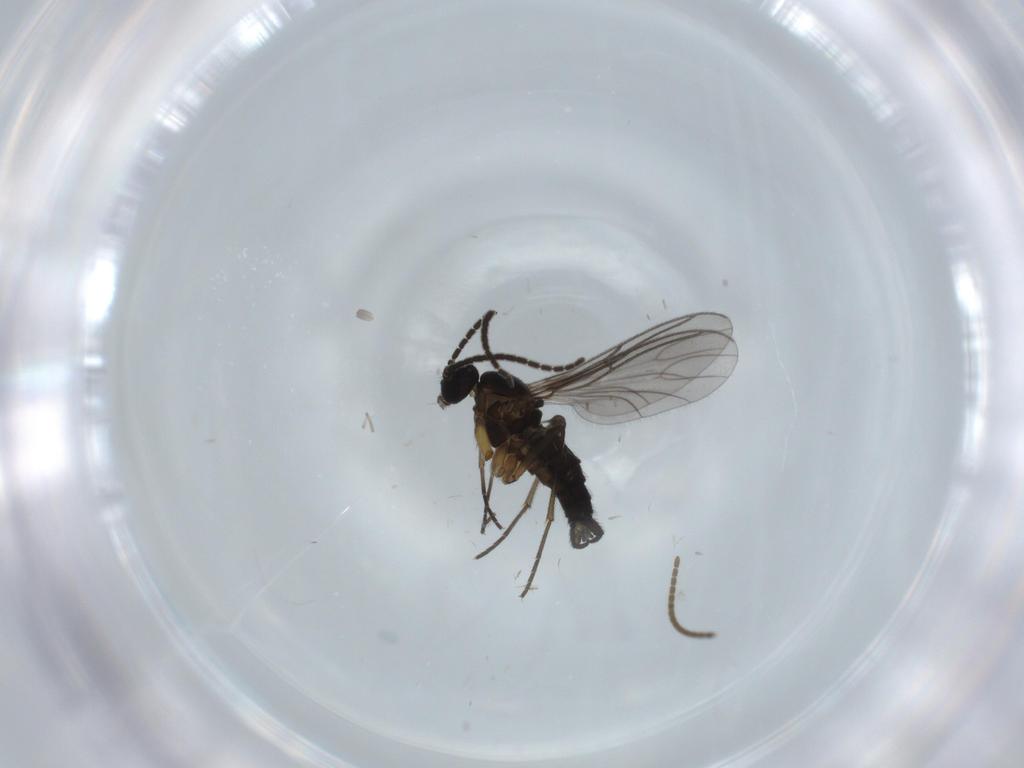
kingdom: Animalia
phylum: Arthropoda
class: Insecta
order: Diptera
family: Sciaridae
